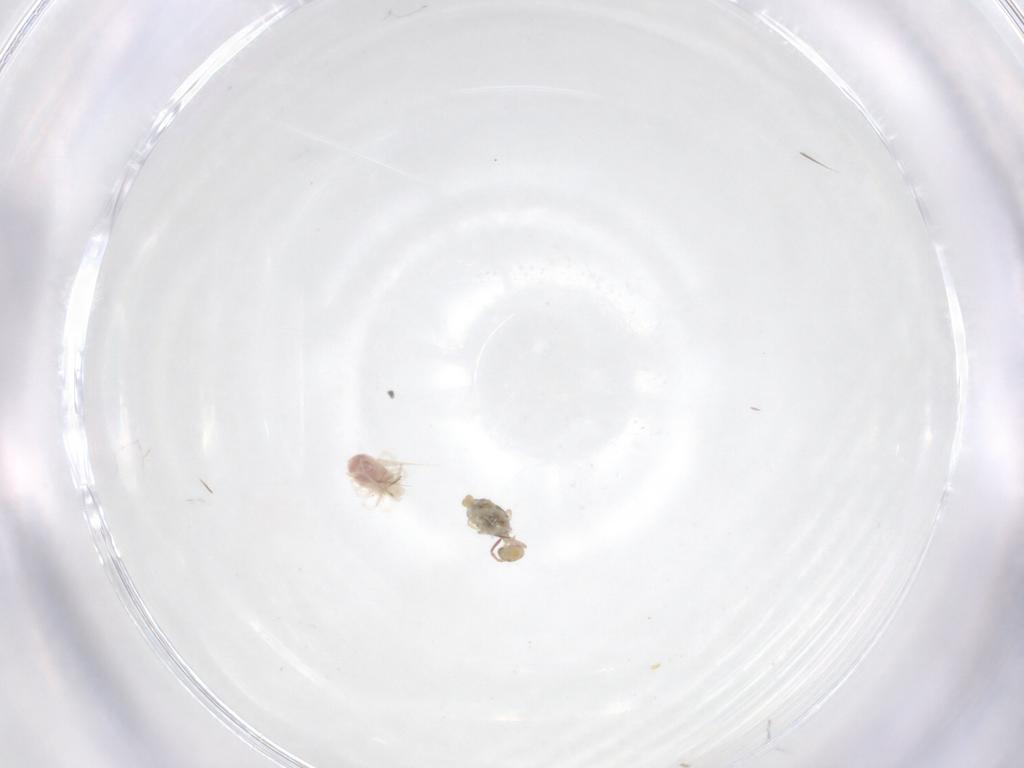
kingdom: Animalia
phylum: Arthropoda
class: Arachnida
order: Trombidiformes
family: Anystidae
